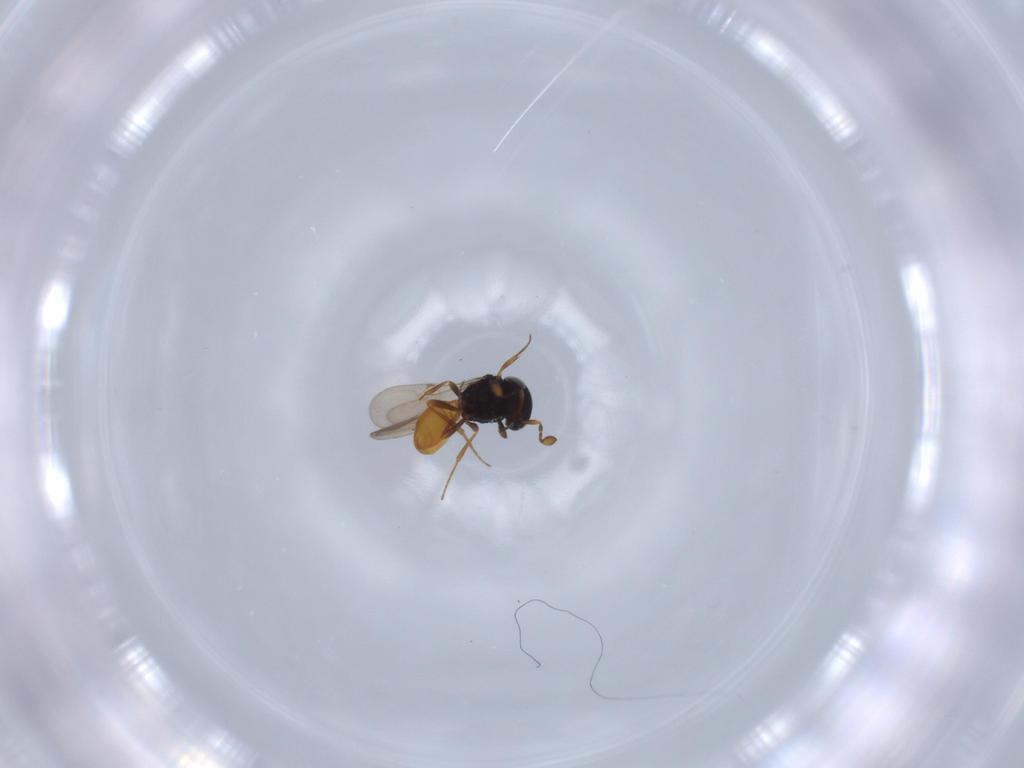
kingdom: Animalia
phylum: Arthropoda
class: Insecta
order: Hymenoptera
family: Scelionidae
